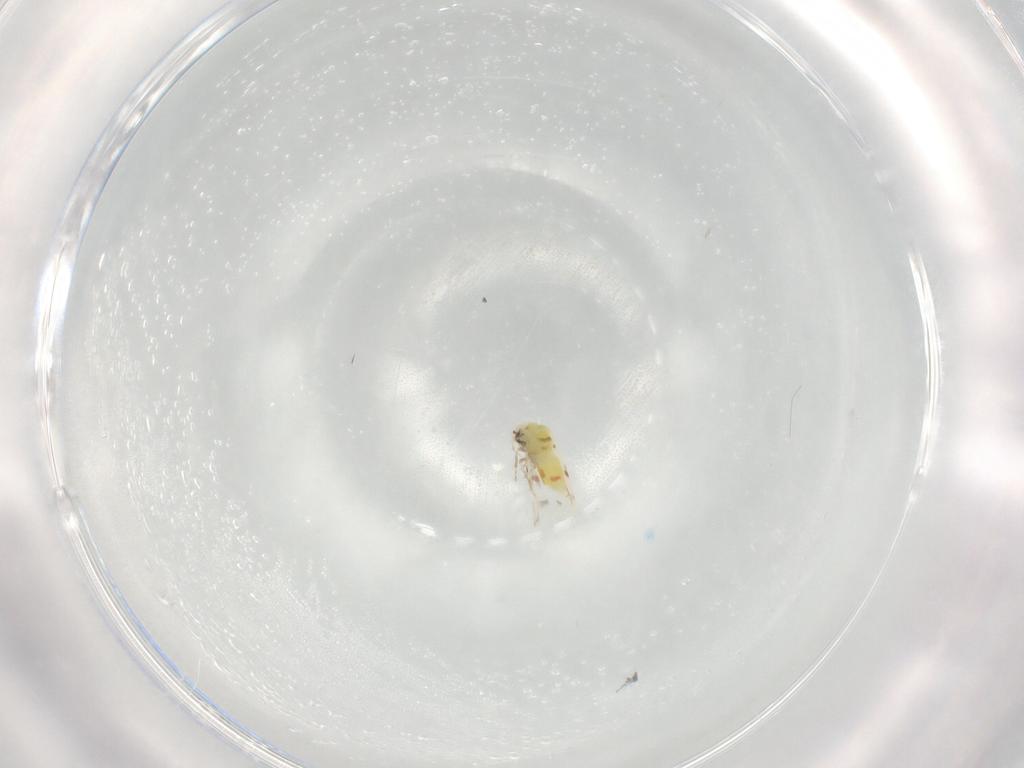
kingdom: Animalia
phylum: Arthropoda
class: Insecta
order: Hemiptera
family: Aleyrodidae
